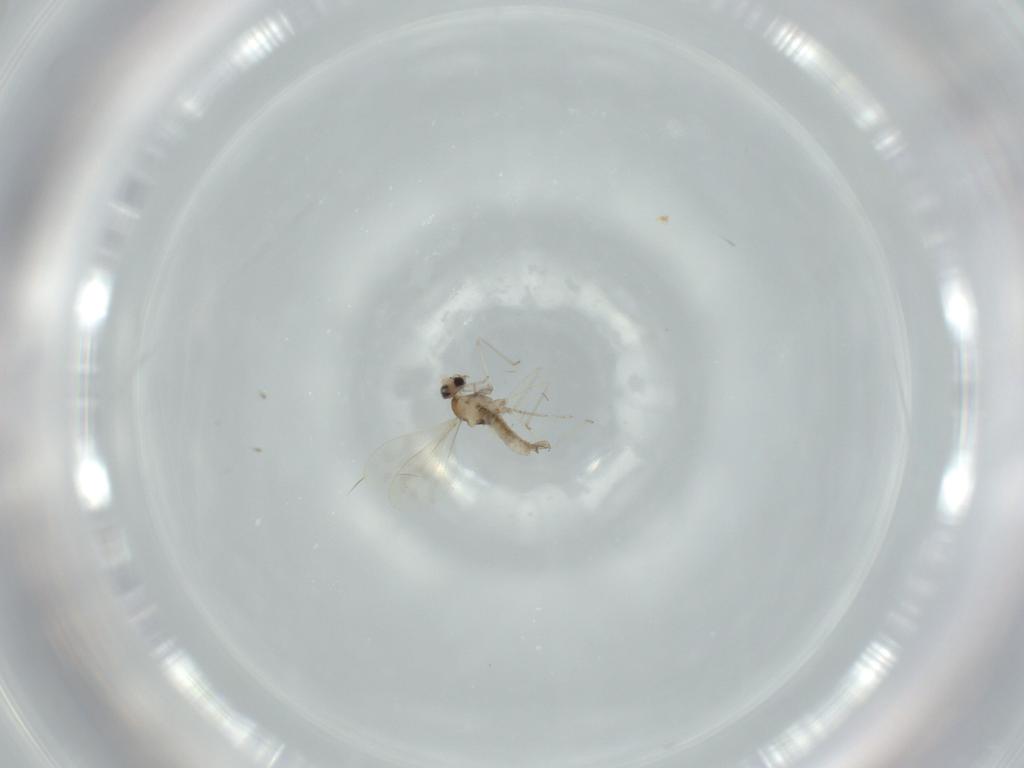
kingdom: Animalia
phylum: Arthropoda
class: Insecta
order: Diptera
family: Cecidomyiidae
